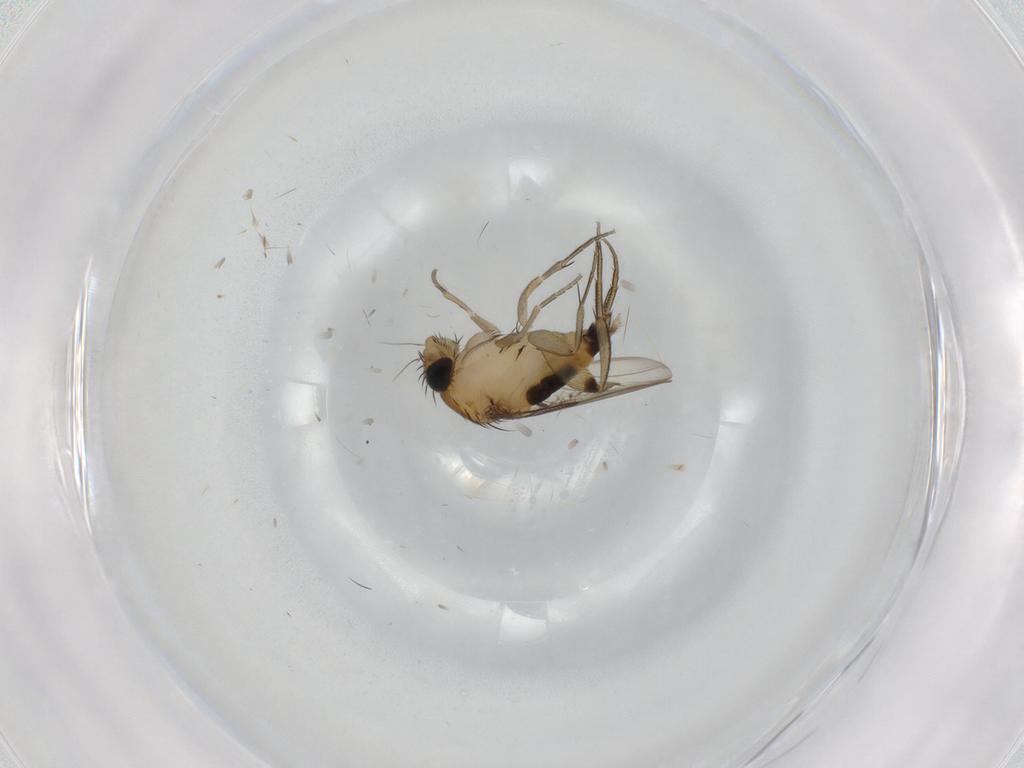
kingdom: Animalia
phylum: Arthropoda
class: Insecta
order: Diptera
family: Phoridae
